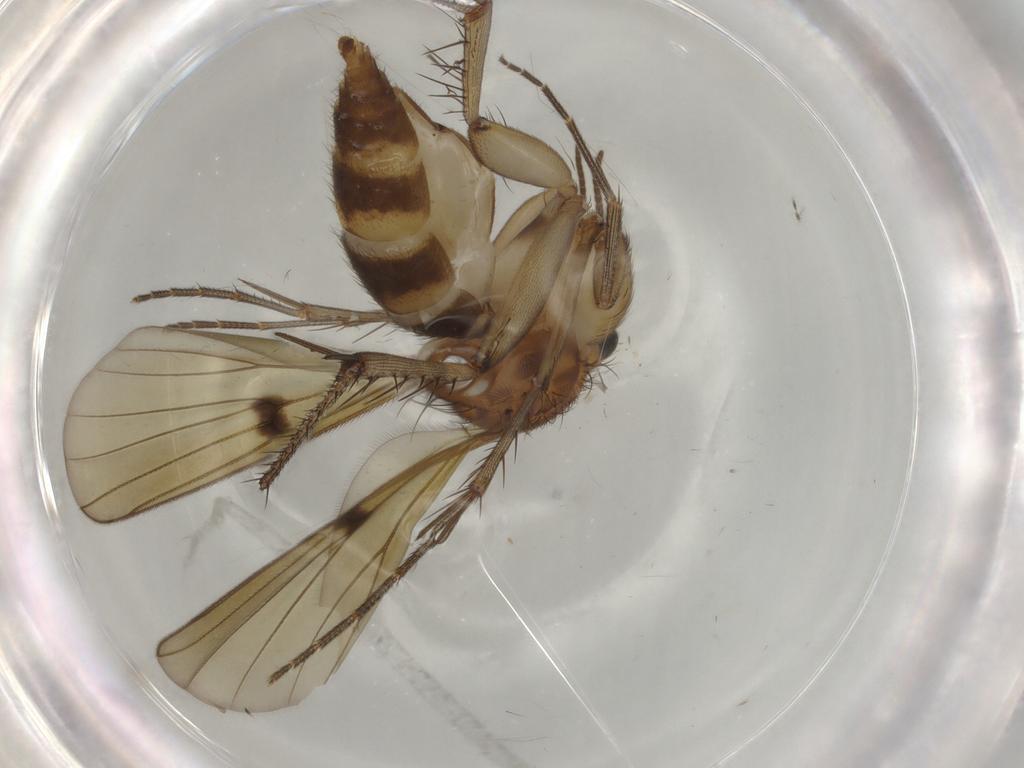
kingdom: Animalia
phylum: Arthropoda
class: Insecta
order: Diptera
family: Mycetophilidae
